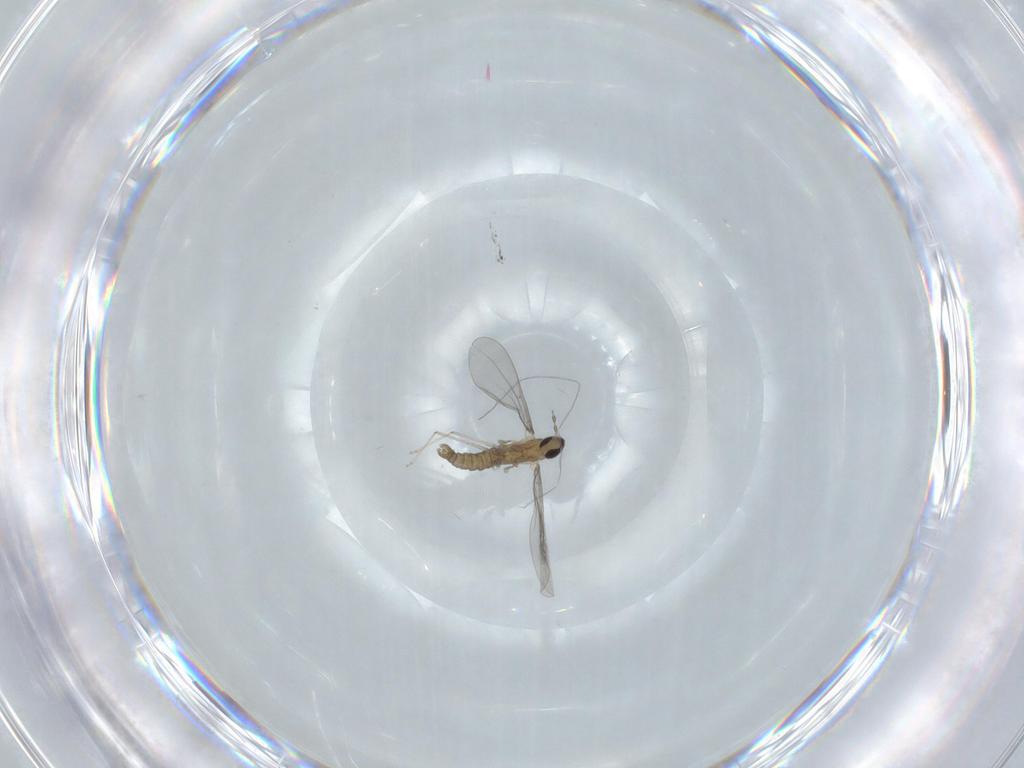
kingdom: Animalia
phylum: Arthropoda
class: Insecta
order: Diptera
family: Cecidomyiidae
